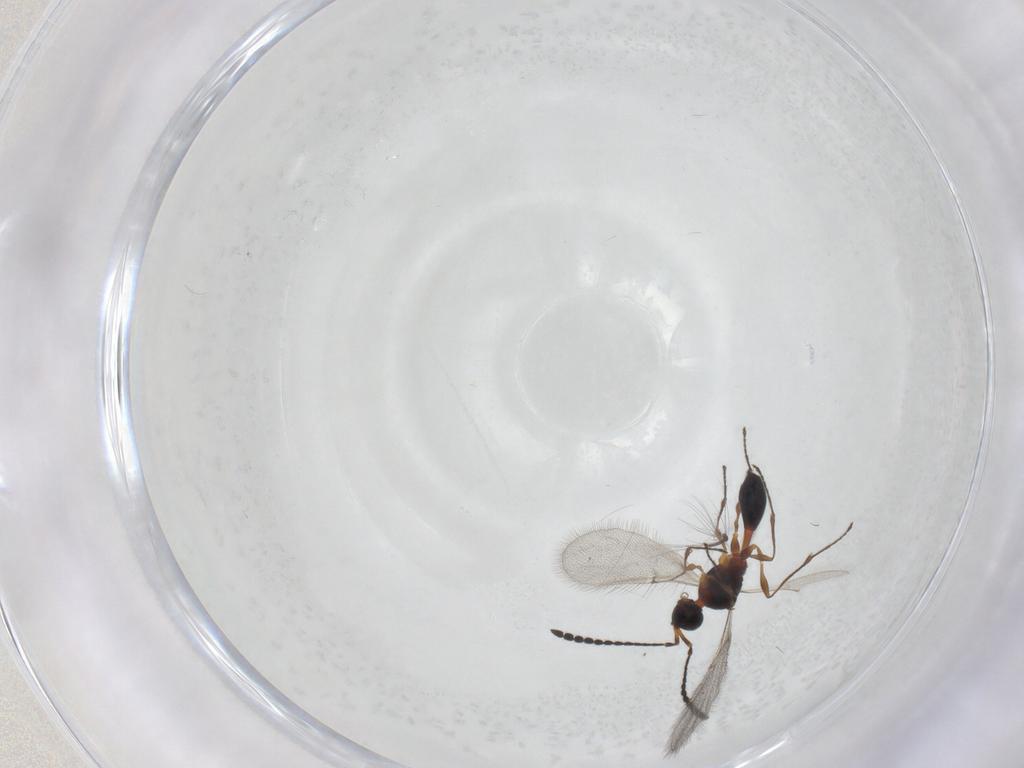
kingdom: Animalia
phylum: Arthropoda
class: Insecta
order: Hymenoptera
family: Diapriidae
